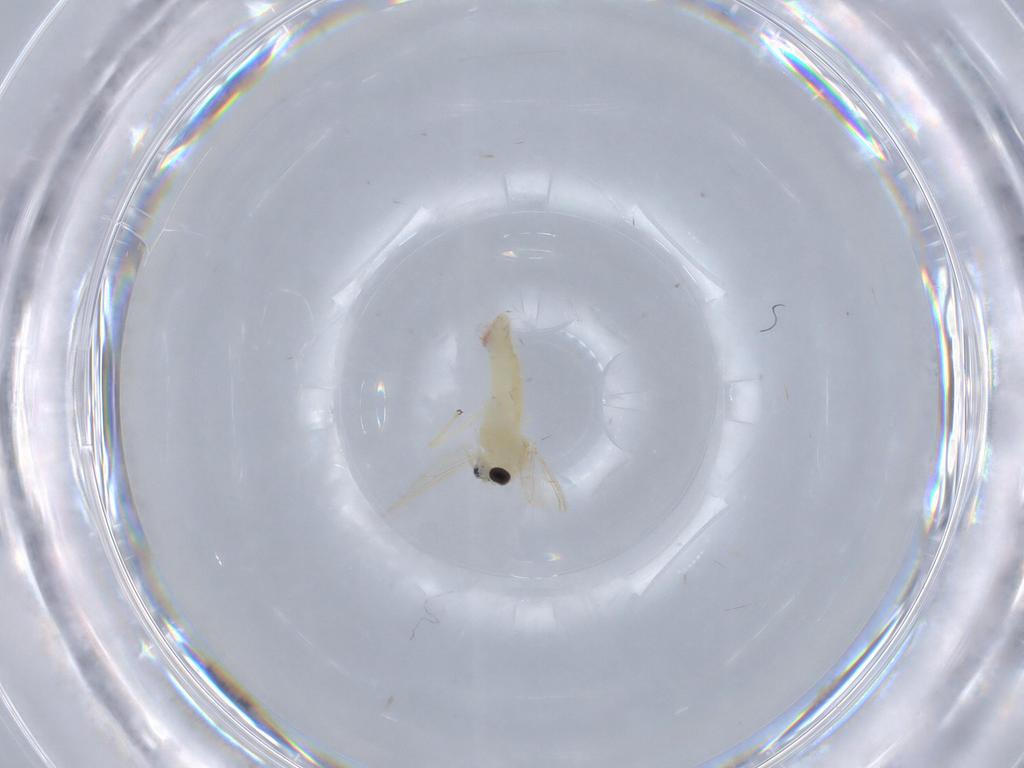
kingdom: Animalia
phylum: Arthropoda
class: Insecta
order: Diptera
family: Chironomidae
